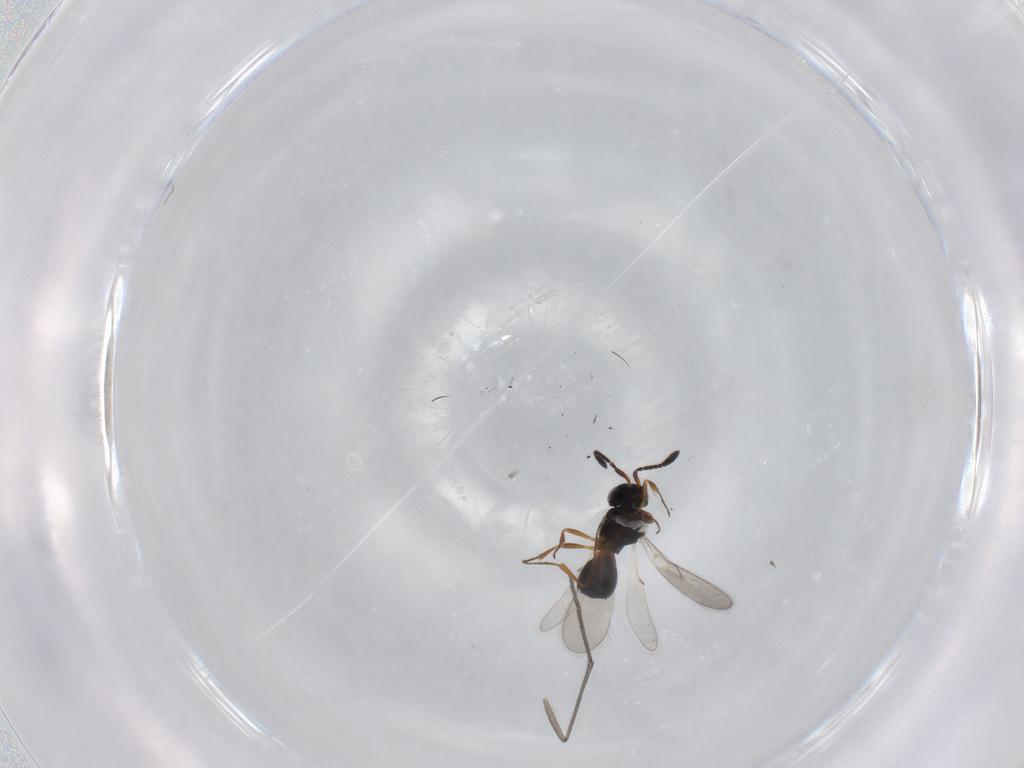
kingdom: Animalia
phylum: Arthropoda
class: Insecta
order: Hymenoptera
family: Scelionidae
